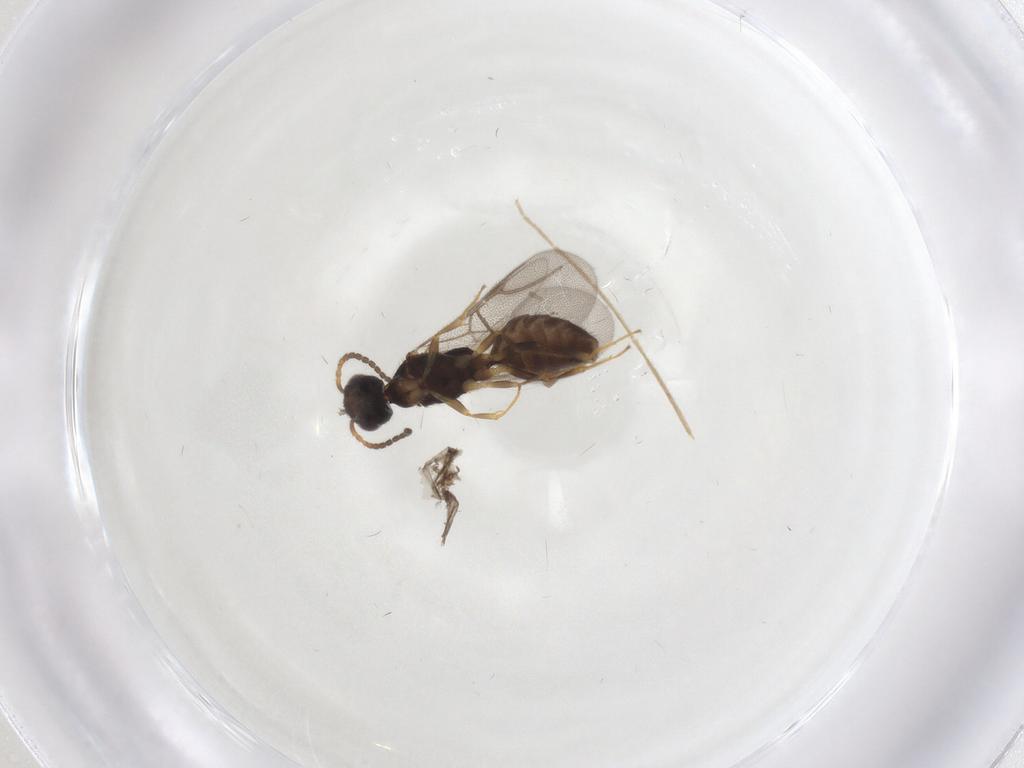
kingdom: Animalia
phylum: Arthropoda
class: Insecta
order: Hymenoptera
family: Bethylidae
